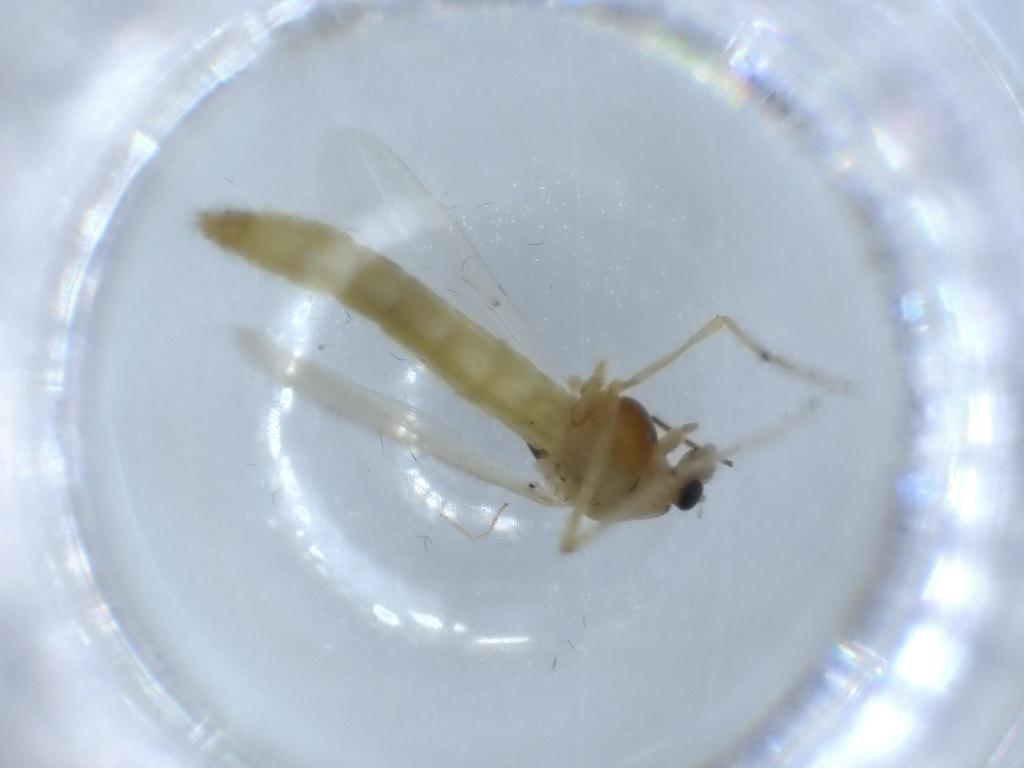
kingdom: Animalia
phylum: Arthropoda
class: Insecta
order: Diptera
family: Chironomidae
